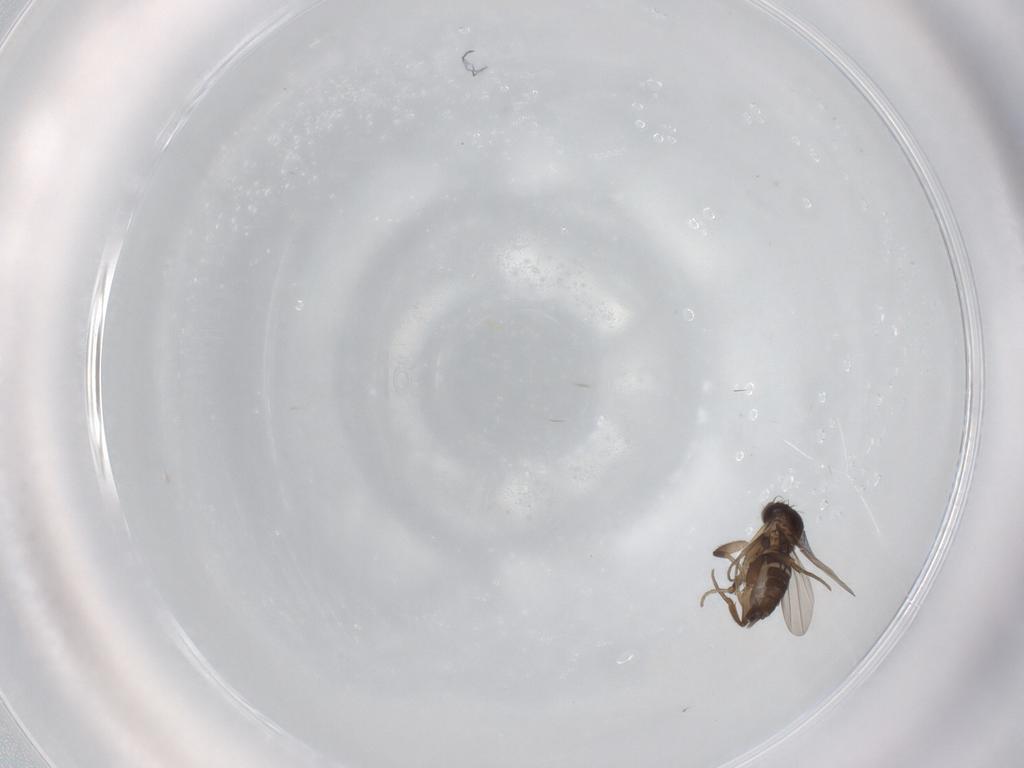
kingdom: Animalia
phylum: Arthropoda
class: Insecta
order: Diptera
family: Phoridae
